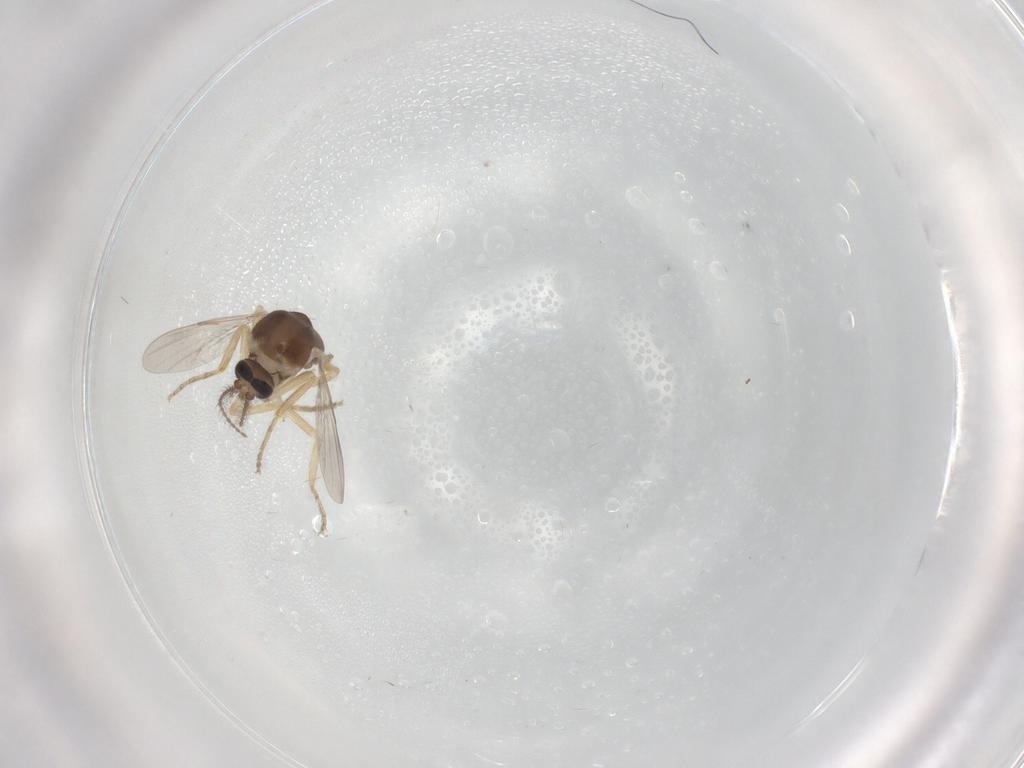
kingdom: Animalia
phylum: Arthropoda
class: Insecta
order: Diptera
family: Ceratopogonidae
